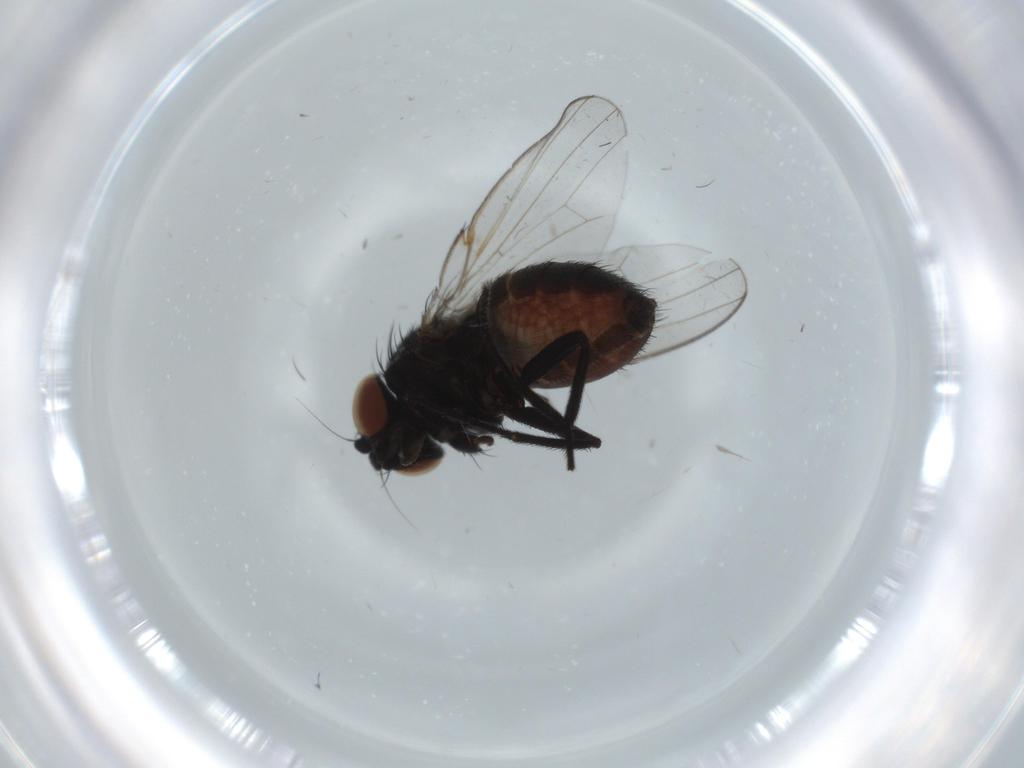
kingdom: Animalia
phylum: Arthropoda
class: Insecta
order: Diptera
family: Milichiidae
